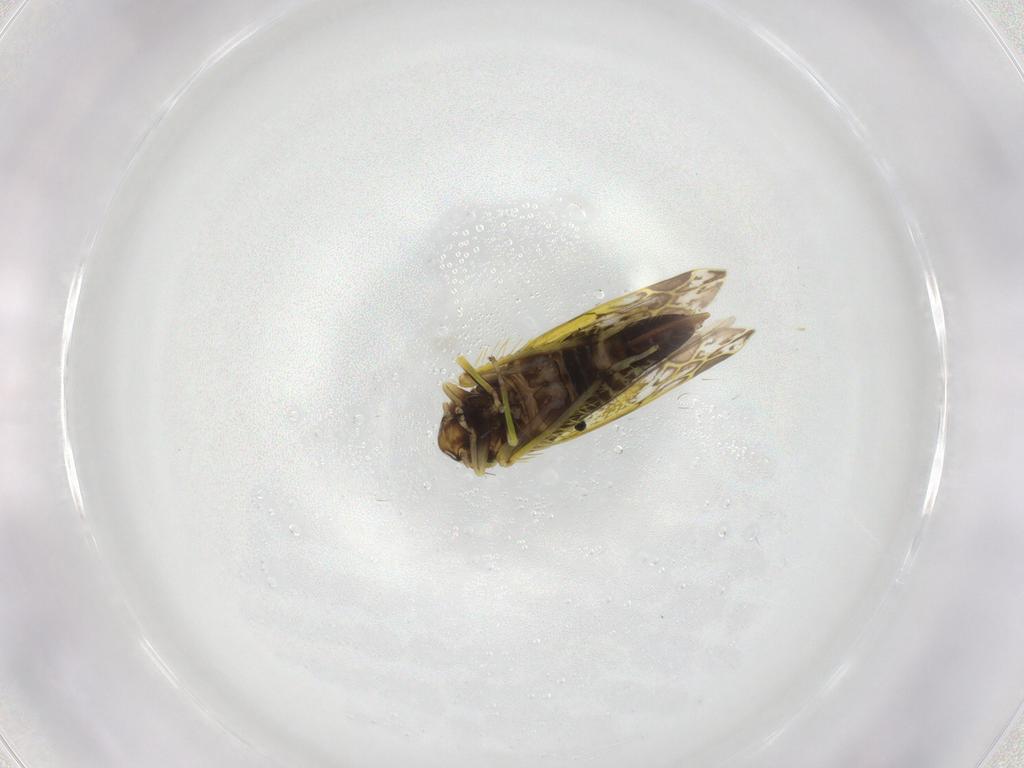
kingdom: Animalia
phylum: Arthropoda
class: Insecta
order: Hemiptera
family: Cicadellidae
